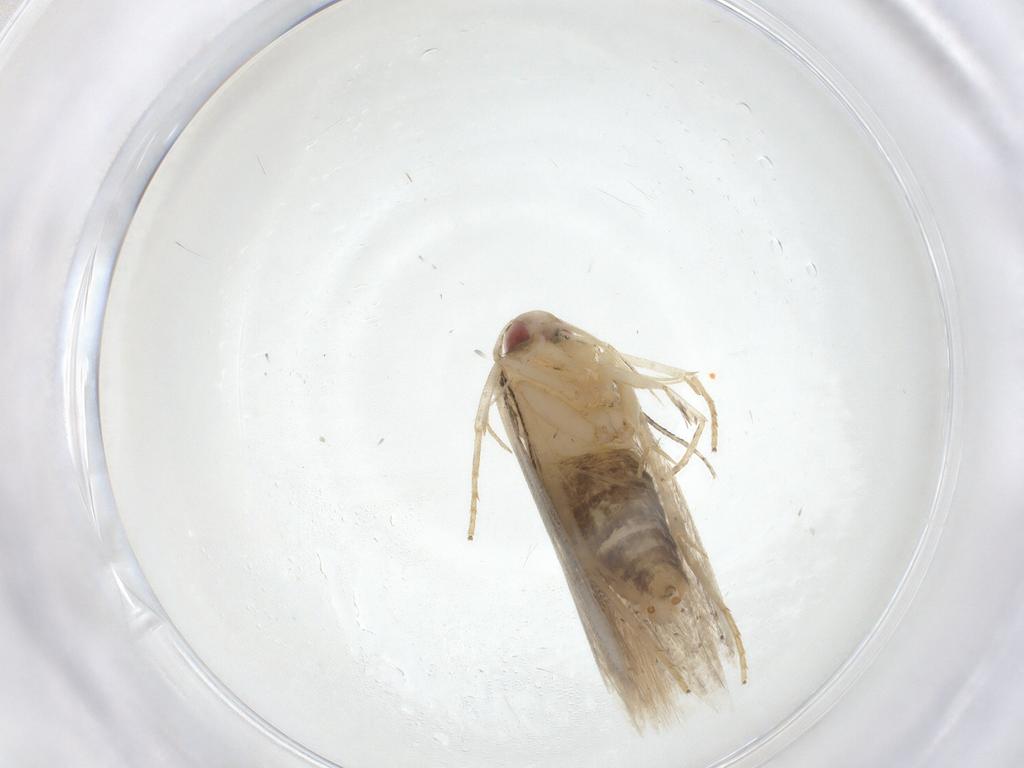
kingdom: Animalia
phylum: Arthropoda
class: Insecta
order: Lepidoptera
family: Gelechiidae
